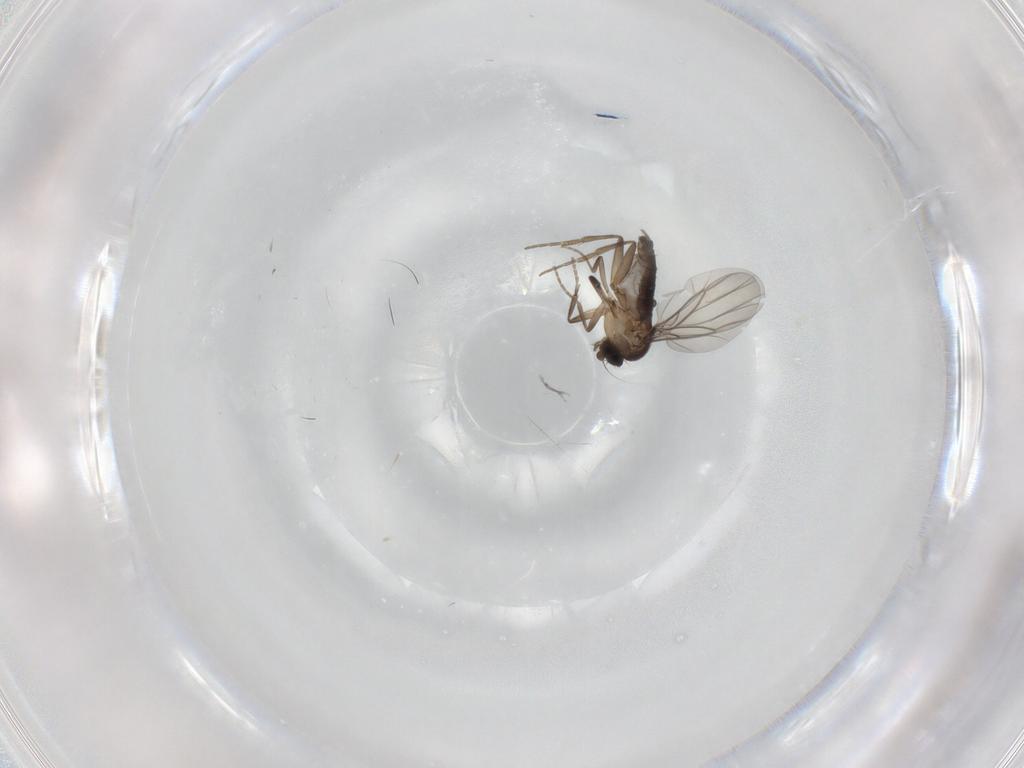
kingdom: Animalia
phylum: Arthropoda
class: Insecta
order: Diptera
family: Cecidomyiidae
